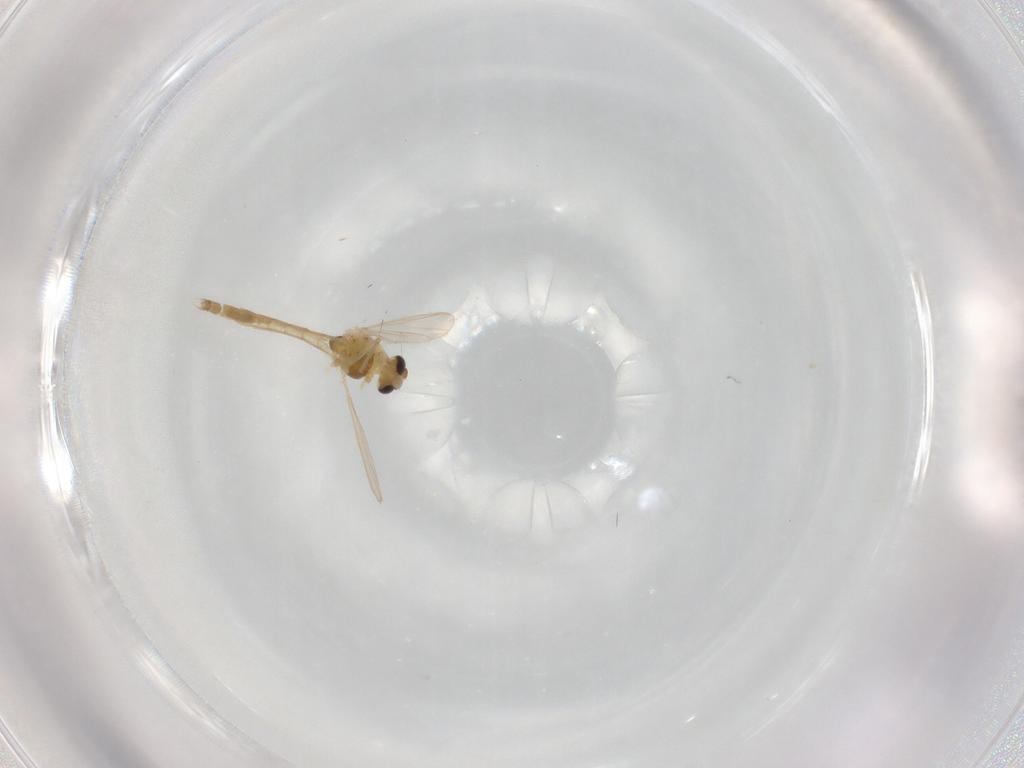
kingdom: Animalia
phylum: Arthropoda
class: Insecta
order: Diptera
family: Chironomidae
